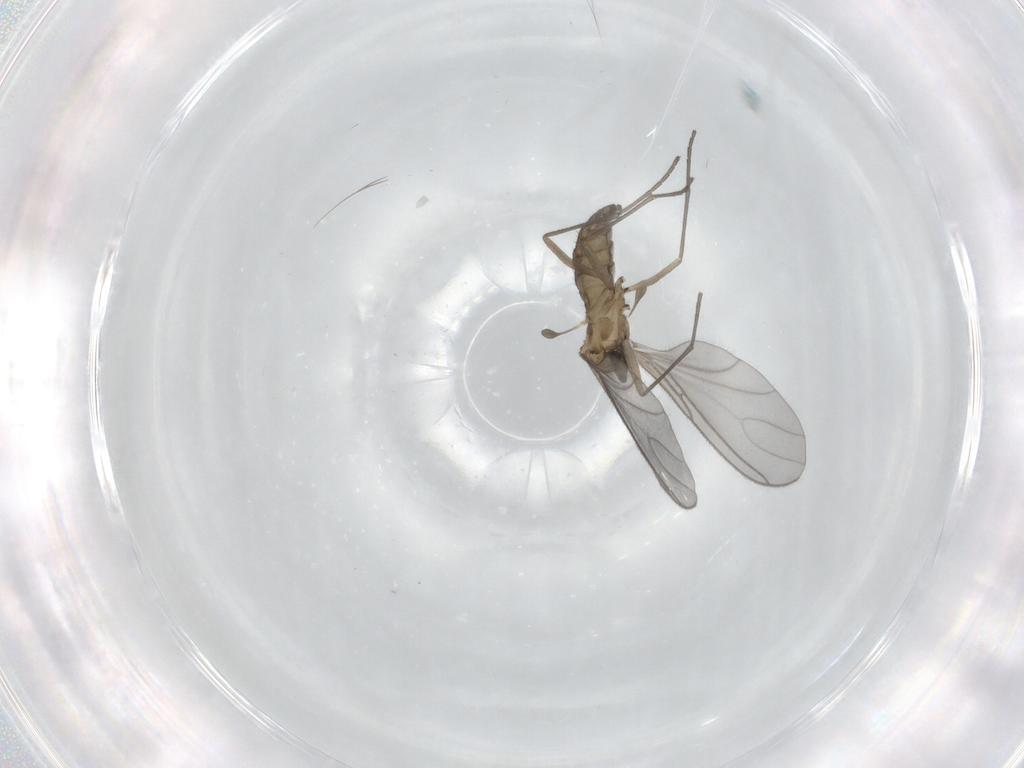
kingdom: Animalia
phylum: Arthropoda
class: Insecta
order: Diptera
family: Sciaridae
